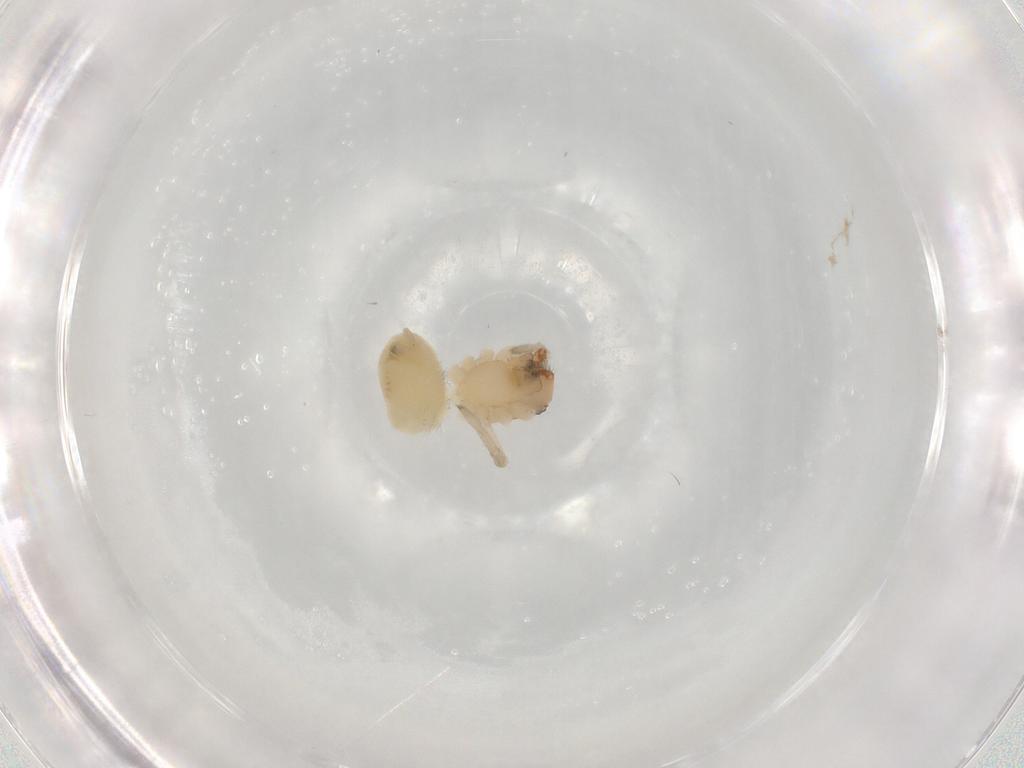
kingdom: Animalia
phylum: Arthropoda
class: Arachnida
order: Araneae
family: Cheiracanthiidae
